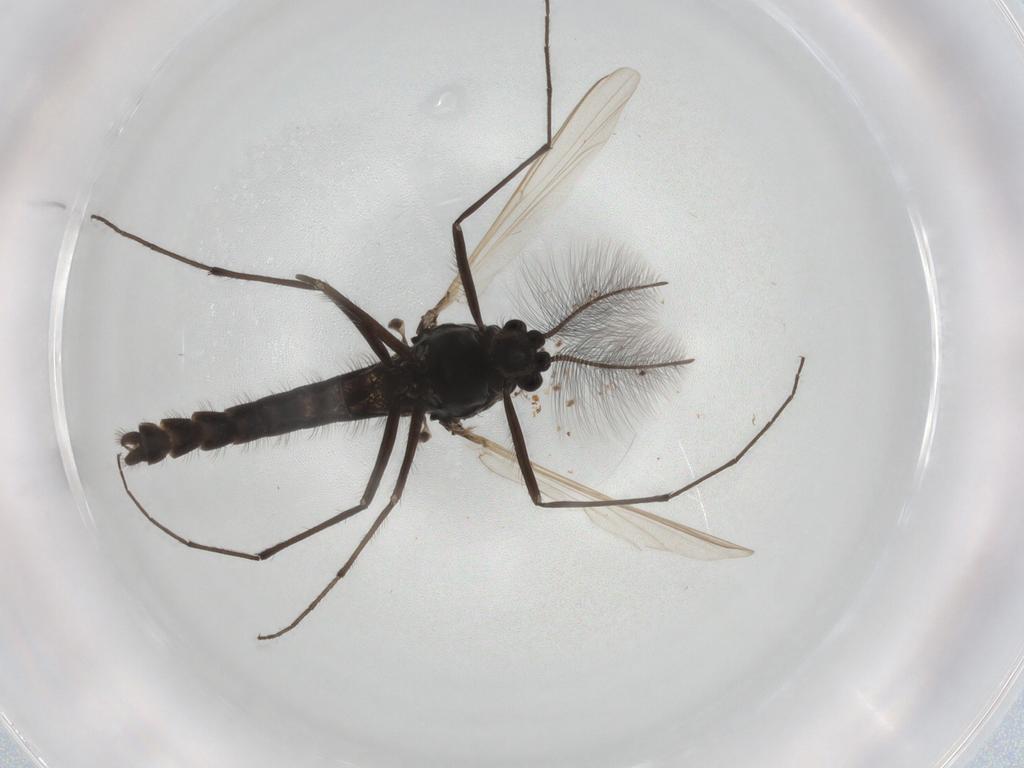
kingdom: Animalia
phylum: Arthropoda
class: Insecta
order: Diptera
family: Chironomidae
